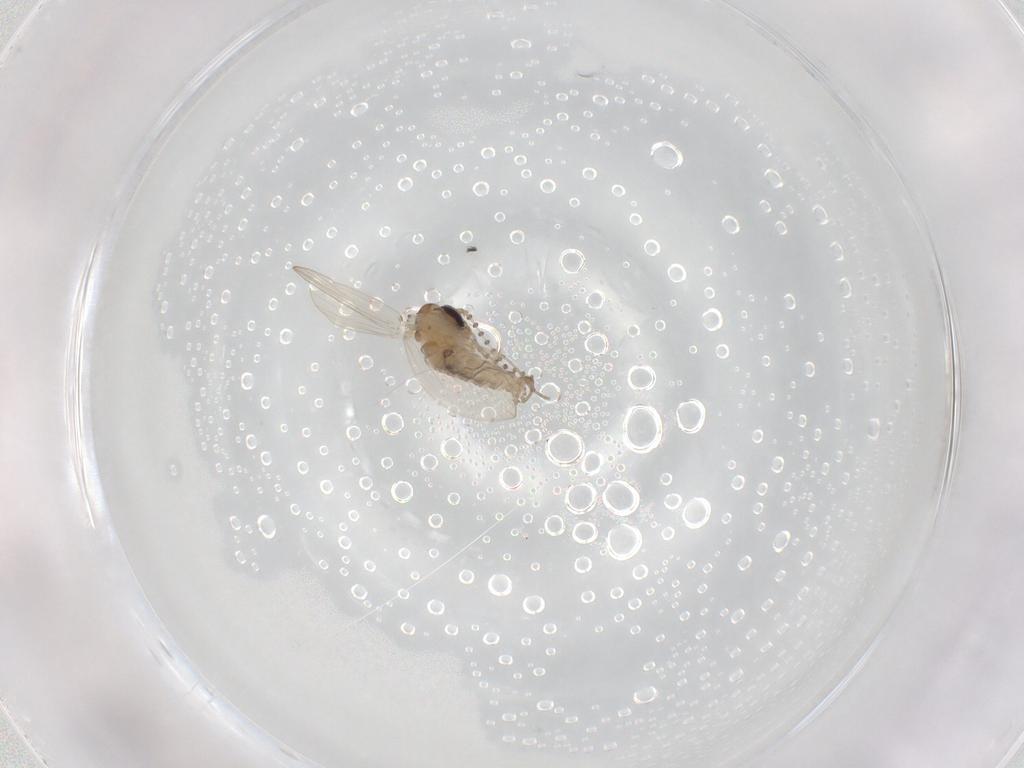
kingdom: Animalia
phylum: Arthropoda
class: Insecta
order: Diptera
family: Psychodidae
